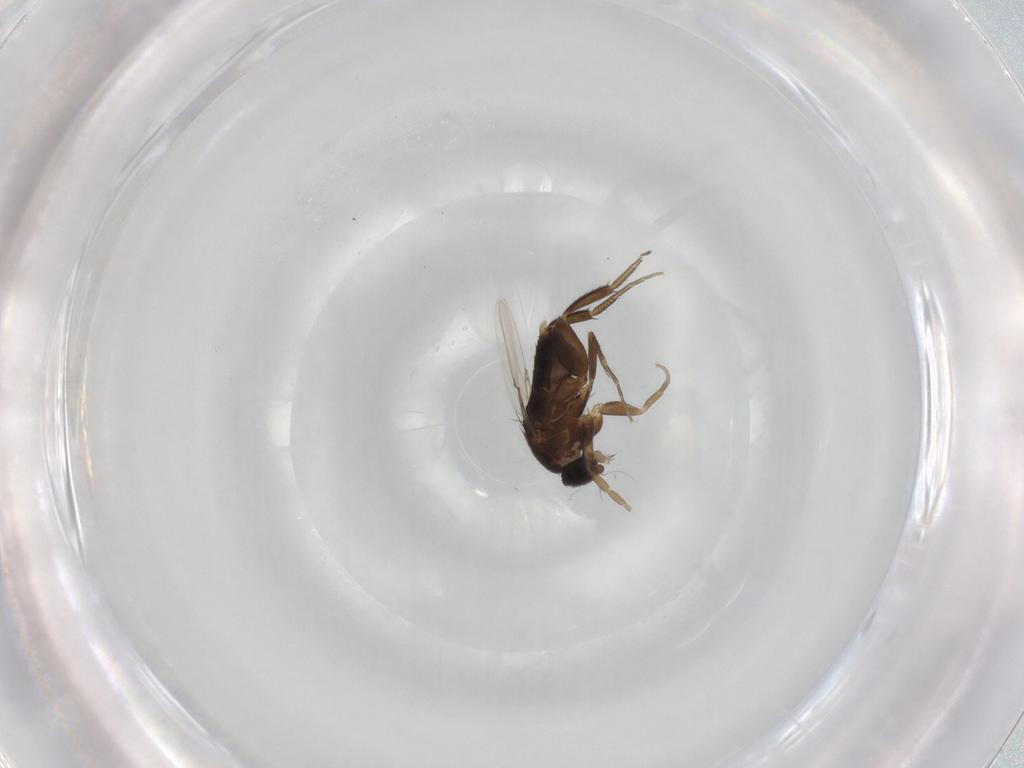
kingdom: Animalia
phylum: Arthropoda
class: Insecta
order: Diptera
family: Phoridae
